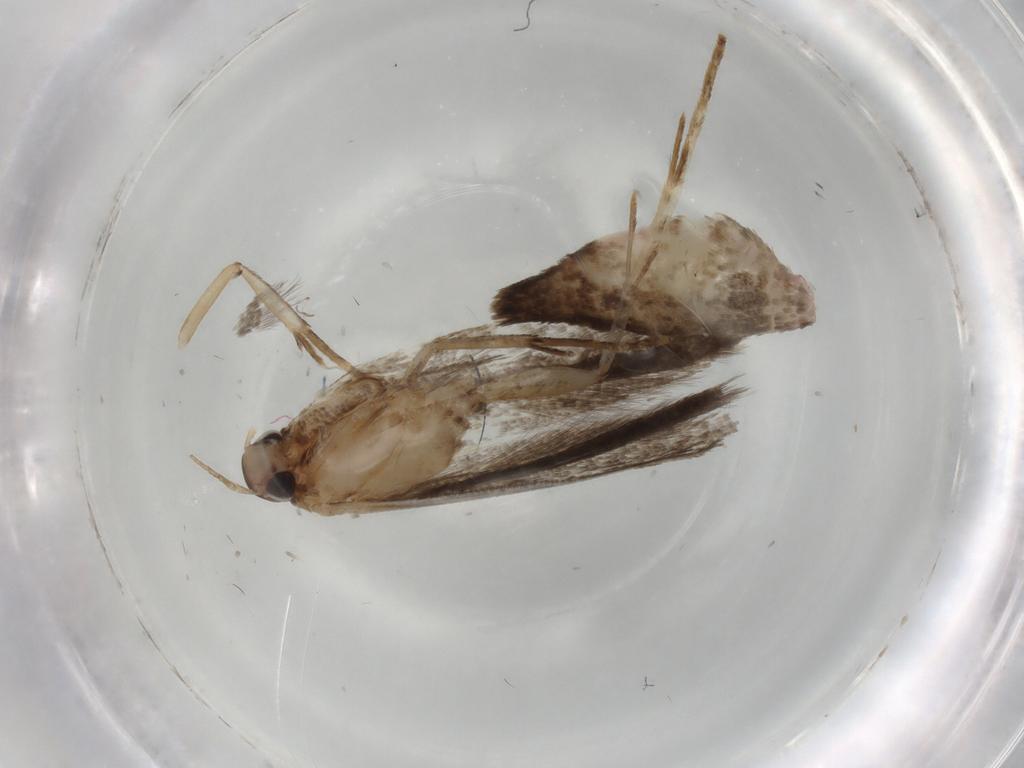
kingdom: Animalia
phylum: Arthropoda
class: Insecta
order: Lepidoptera
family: Gelechiidae
